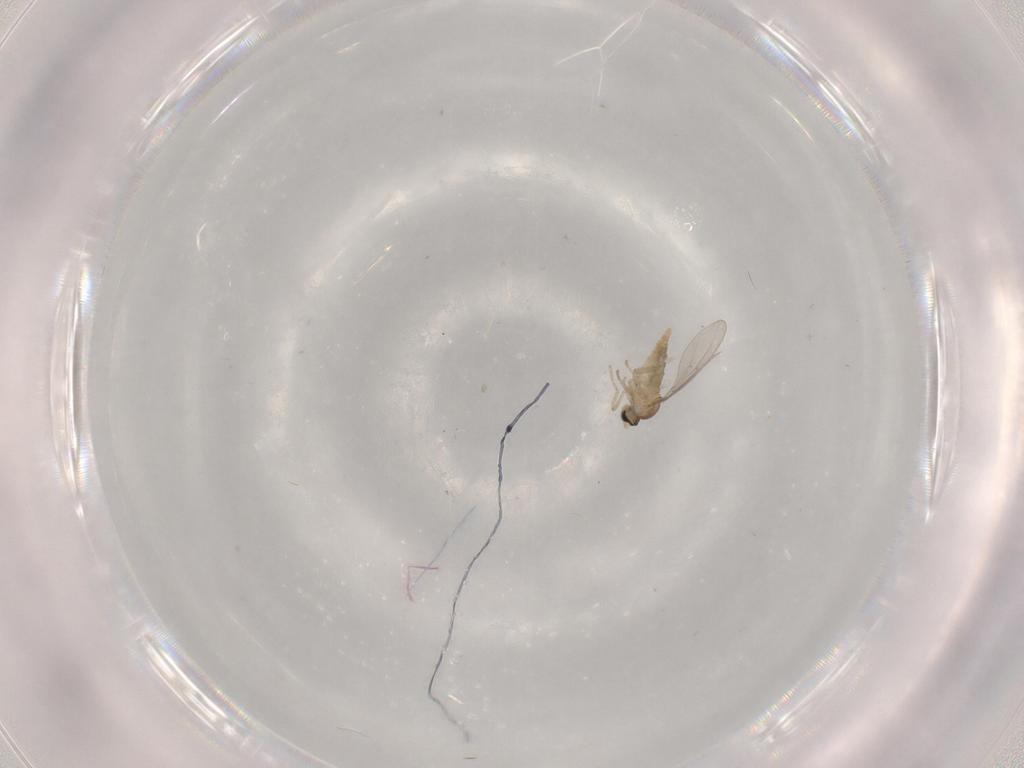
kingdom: Animalia
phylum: Arthropoda
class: Insecta
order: Diptera
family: Cecidomyiidae
